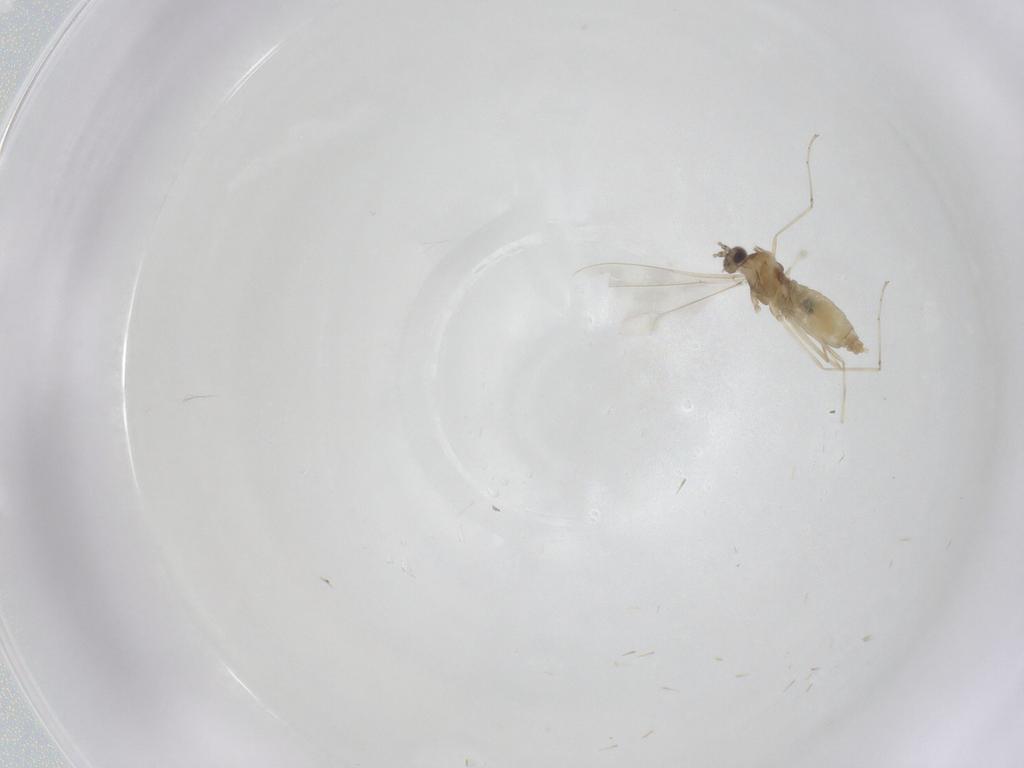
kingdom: Animalia
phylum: Arthropoda
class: Insecta
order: Diptera
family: Cecidomyiidae
